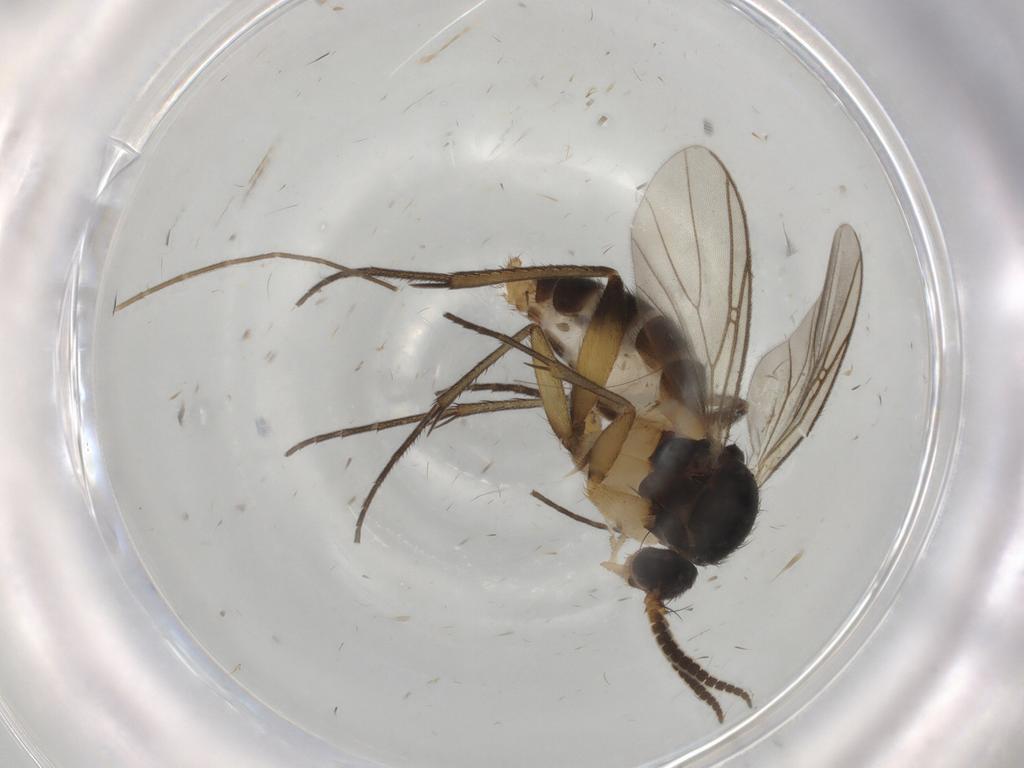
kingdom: Animalia
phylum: Arthropoda
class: Insecta
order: Diptera
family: Mycetophilidae
